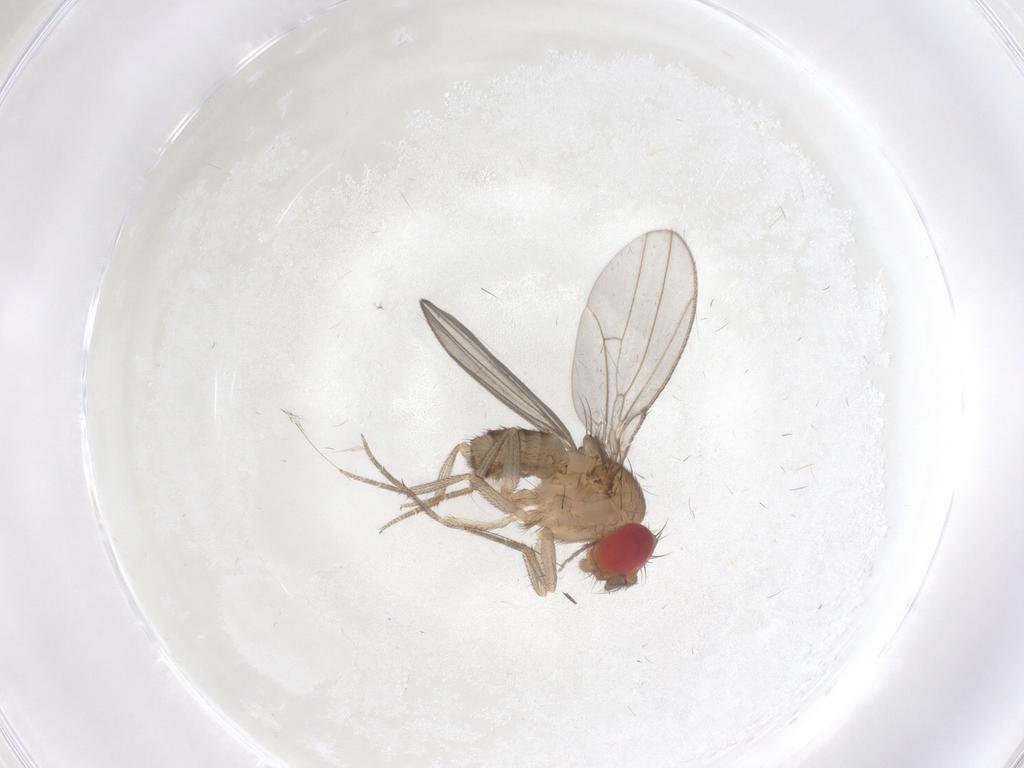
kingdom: Animalia
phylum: Arthropoda
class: Insecta
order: Diptera
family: Drosophilidae
